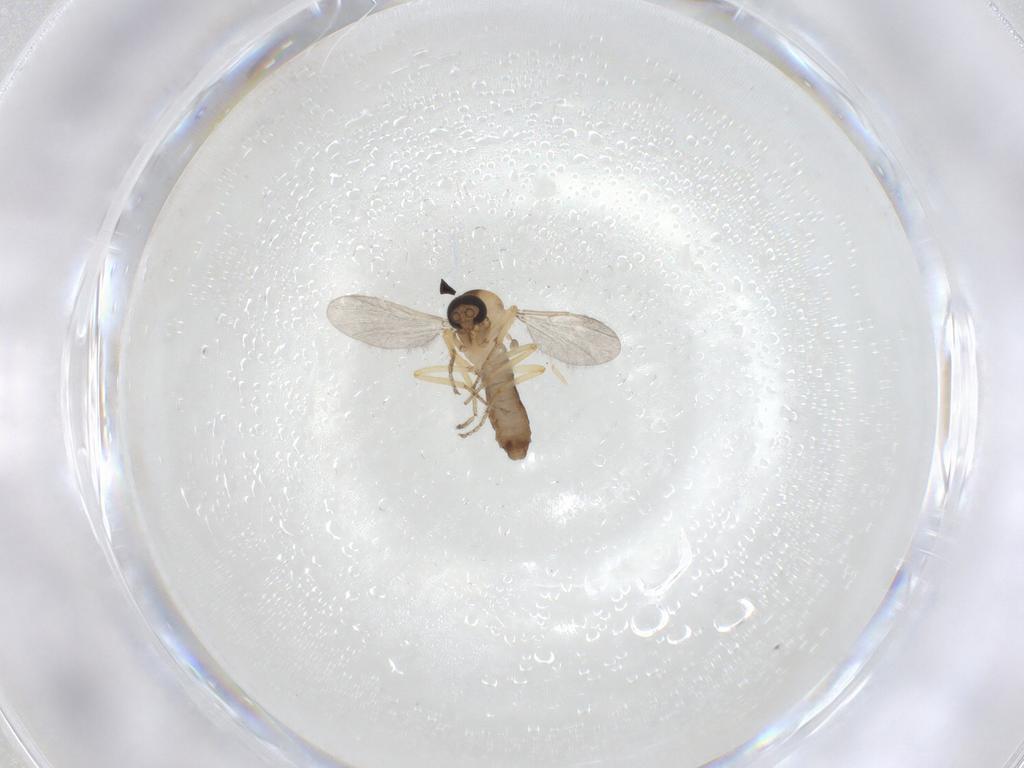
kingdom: Animalia
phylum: Arthropoda
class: Insecta
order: Diptera
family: Ceratopogonidae
